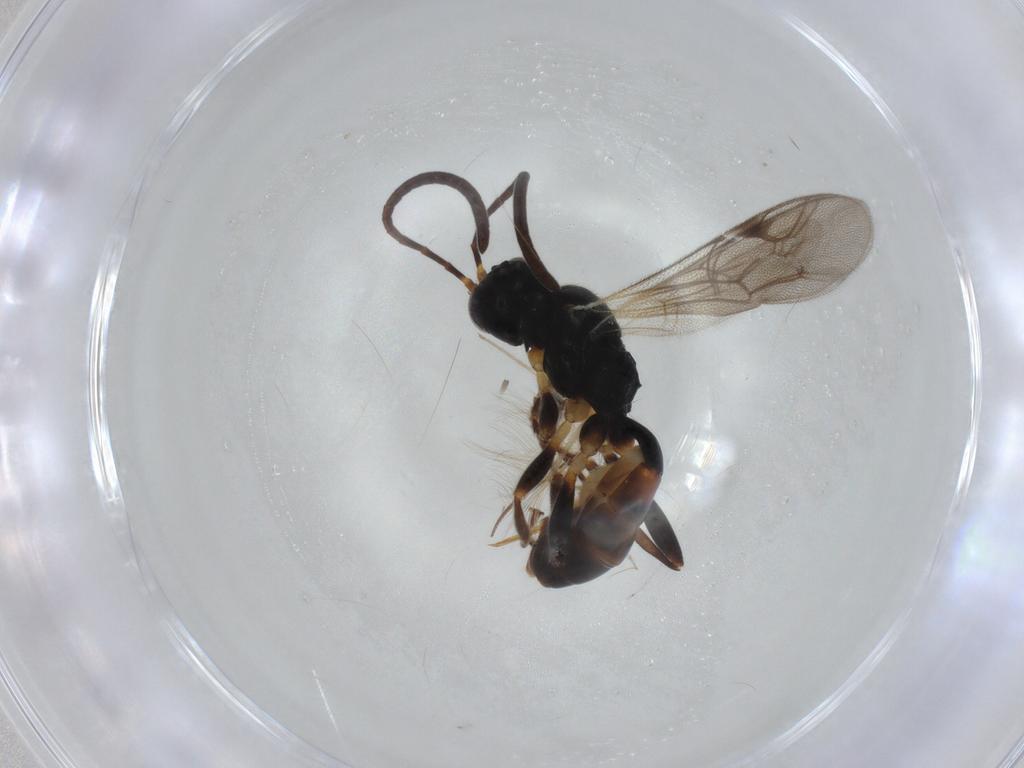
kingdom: Animalia
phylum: Arthropoda
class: Insecta
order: Hymenoptera
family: Ichneumonidae
